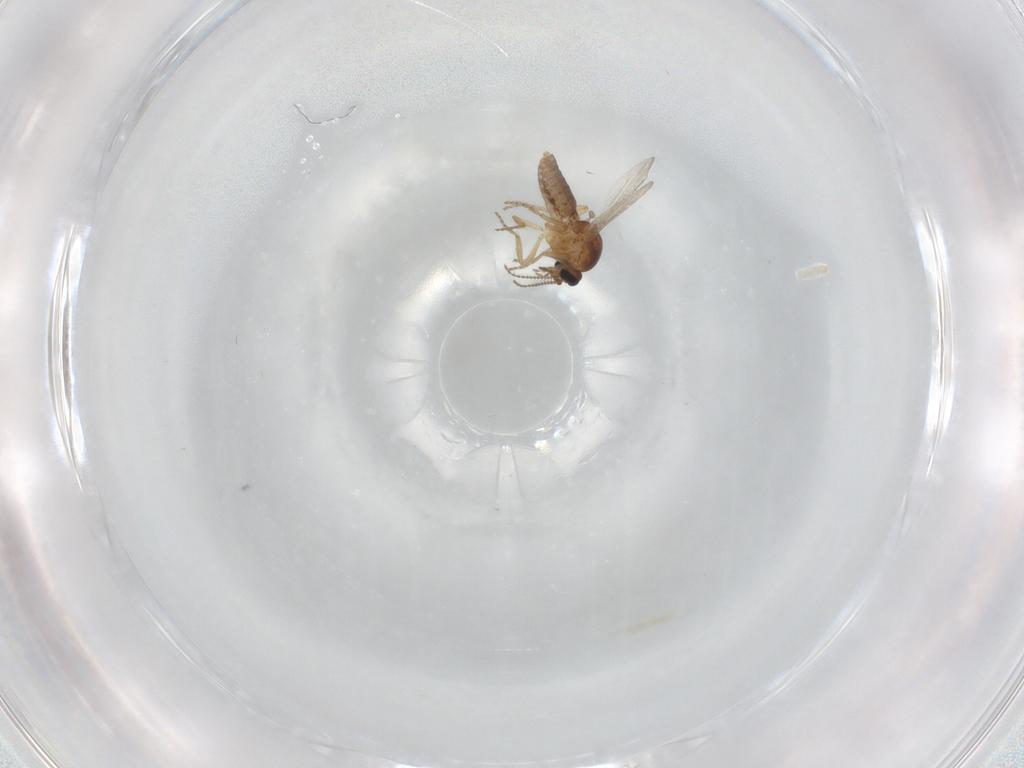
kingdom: Animalia
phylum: Arthropoda
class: Insecta
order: Diptera
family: Ceratopogonidae
